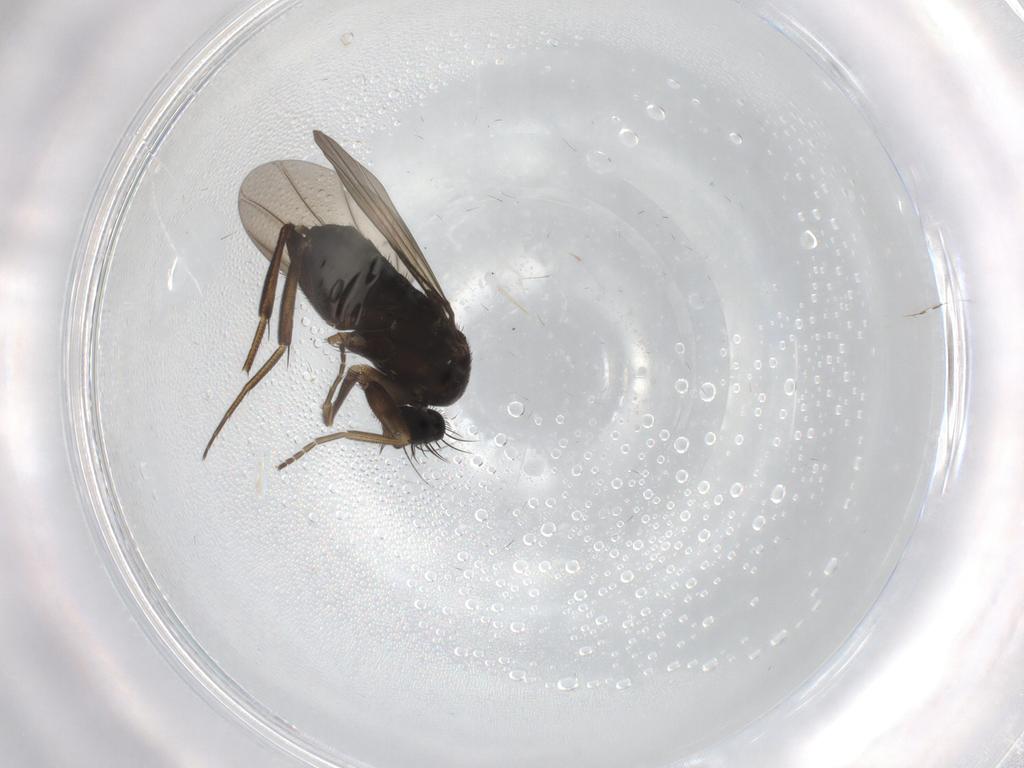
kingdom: Animalia
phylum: Arthropoda
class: Insecta
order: Diptera
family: Phoridae
